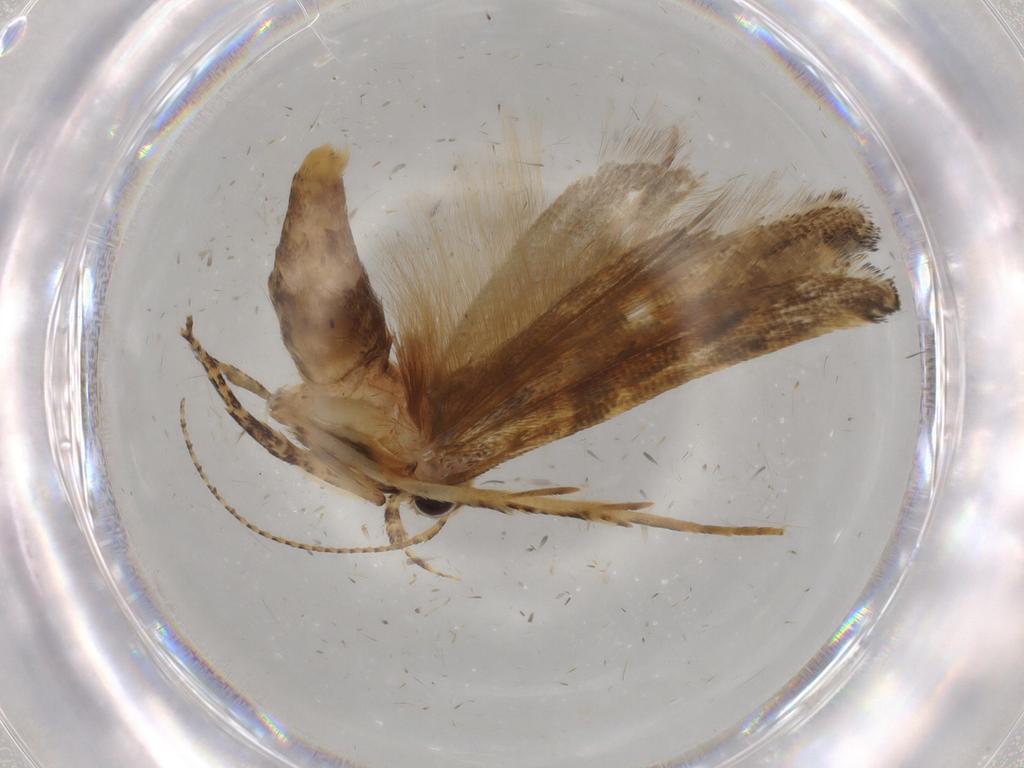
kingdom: Animalia
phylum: Arthropoda
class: Insecta
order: Lepidoptera
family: Gelechiidae
